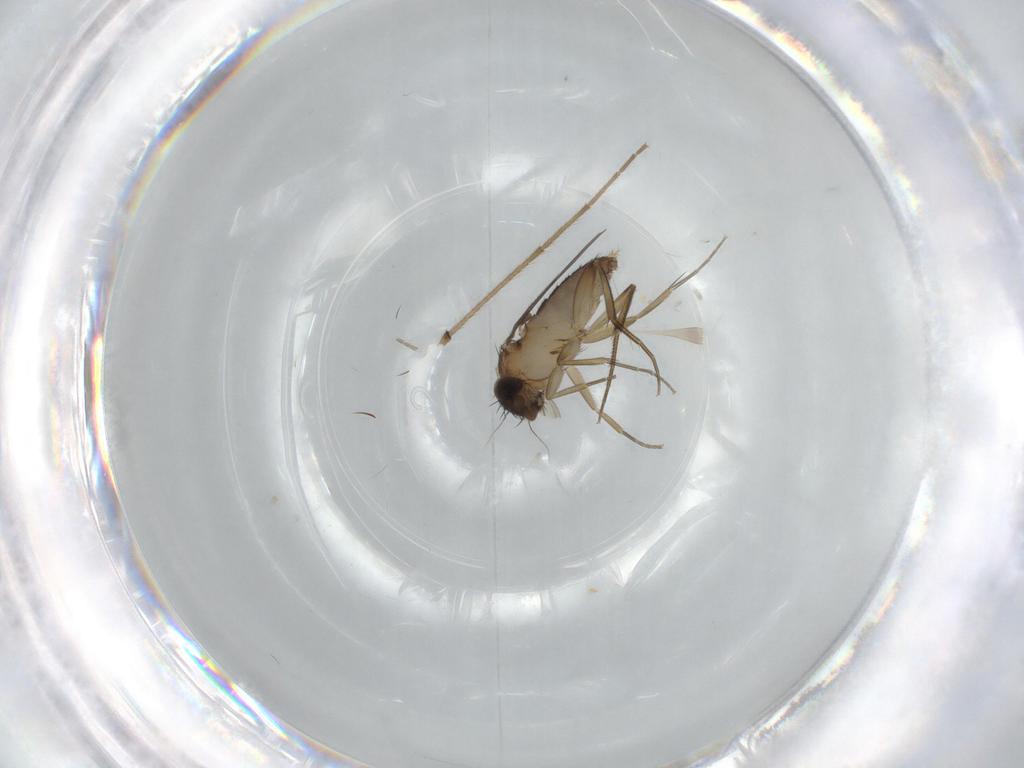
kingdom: Animalia
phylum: Arthropoda
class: Insecta
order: Diptera
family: Phoridae
